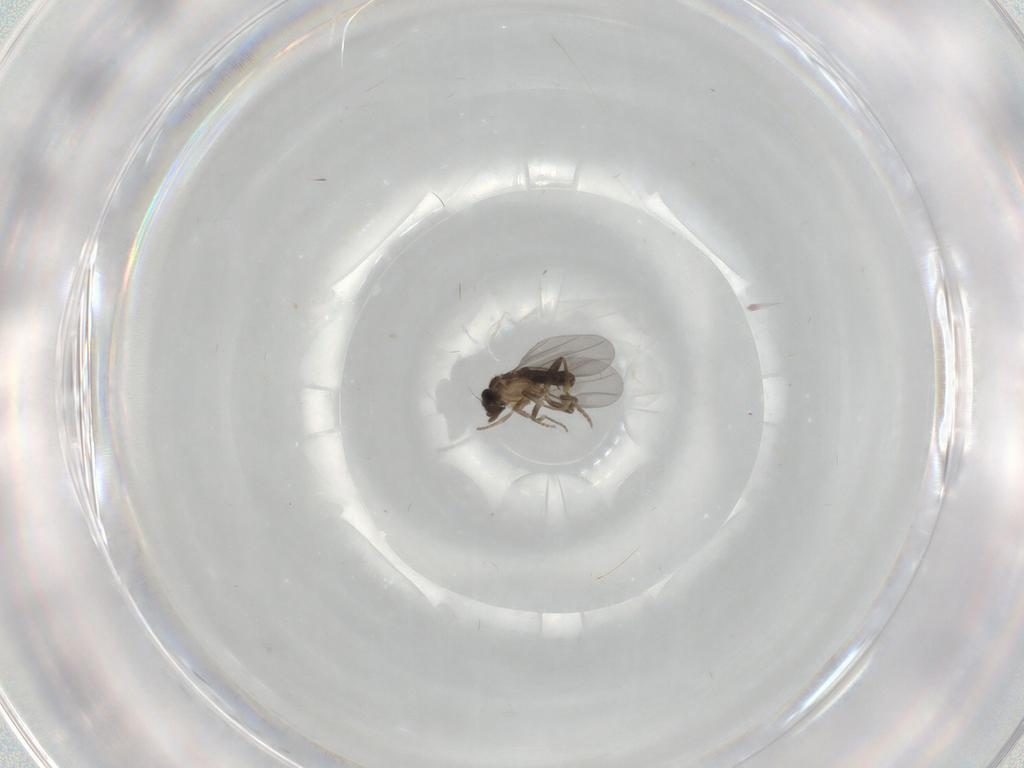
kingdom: Animalia
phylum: Arthropoda
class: Insecta
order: Diptera
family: Phoridae
